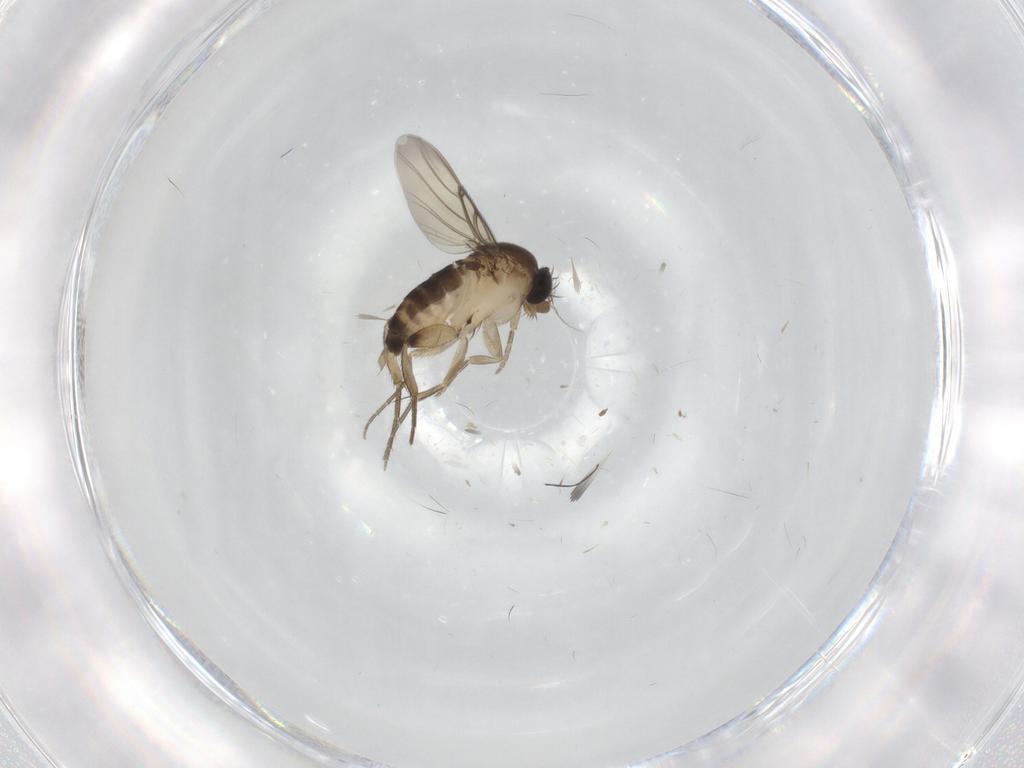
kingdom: Animalia
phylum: Arthropoda
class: Insecta
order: Diptera
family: Phoridae
